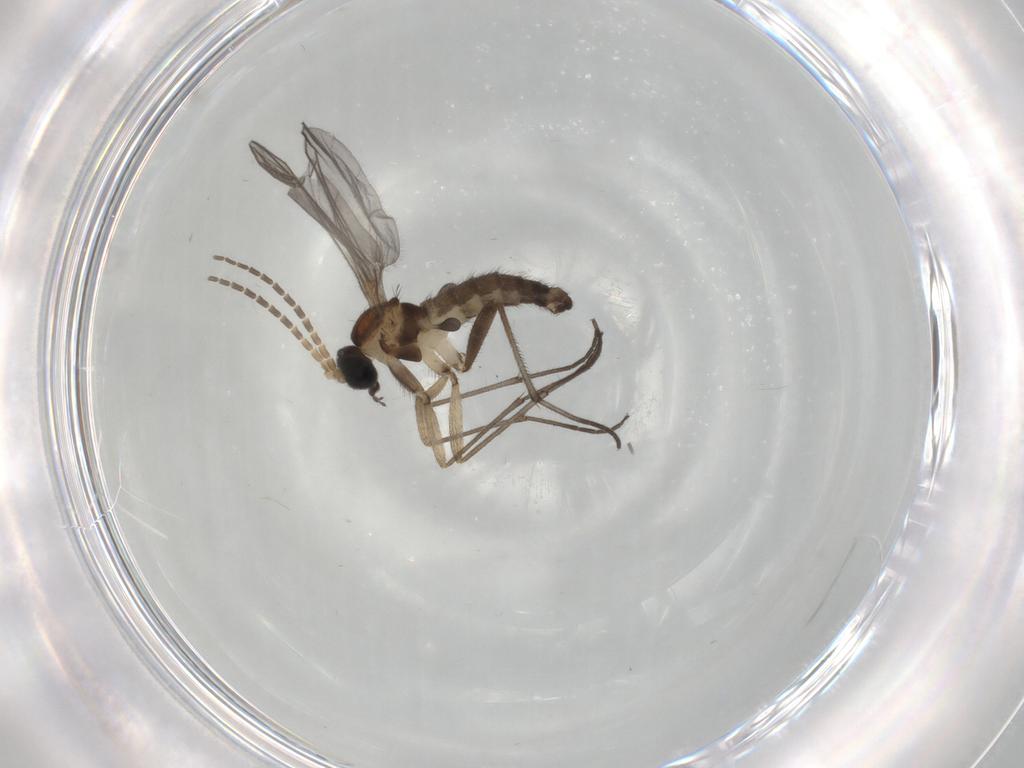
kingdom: Animalia
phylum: Arthropoda
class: Insecta
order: Diptera
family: Sciaridae
